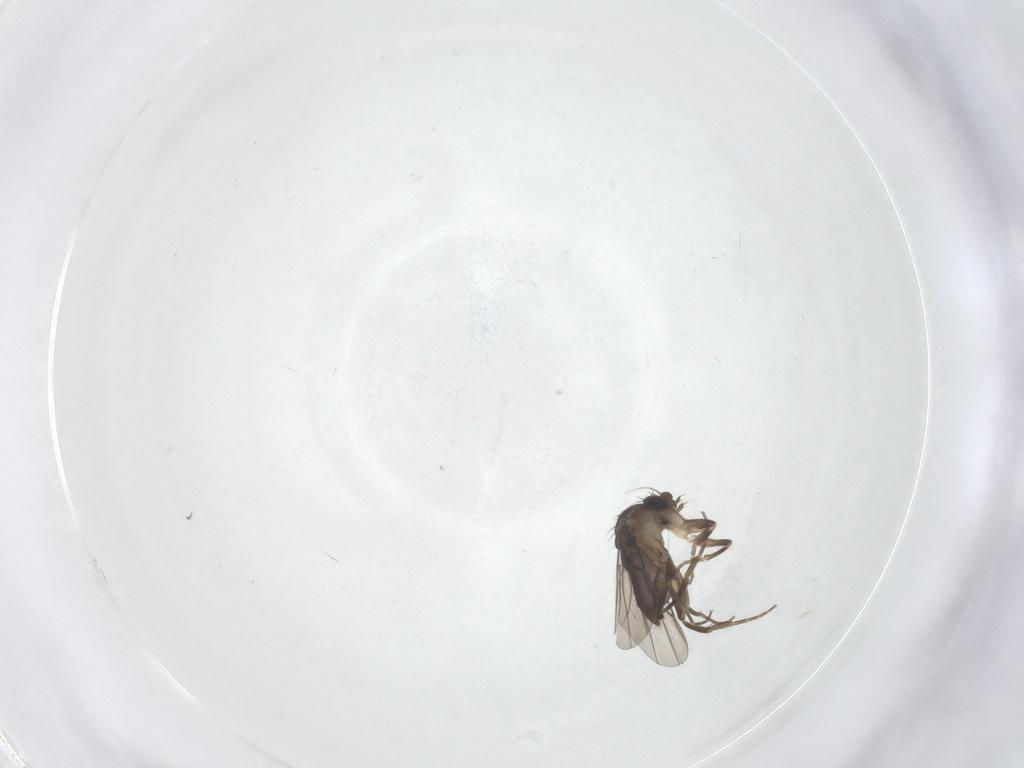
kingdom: Animalia
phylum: Arthropoda
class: Insecta
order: Diptera
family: Phoridae
